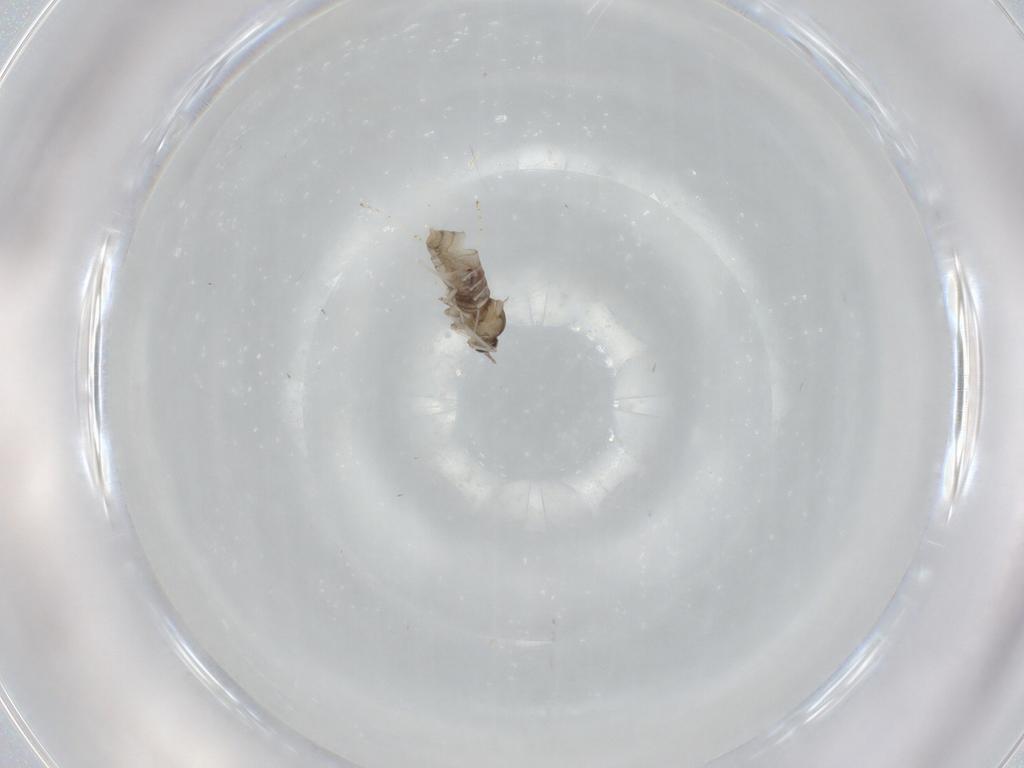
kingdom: Animalia
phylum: Arthropoda
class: Insecta
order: Diptera
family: Cecidomyiidae
